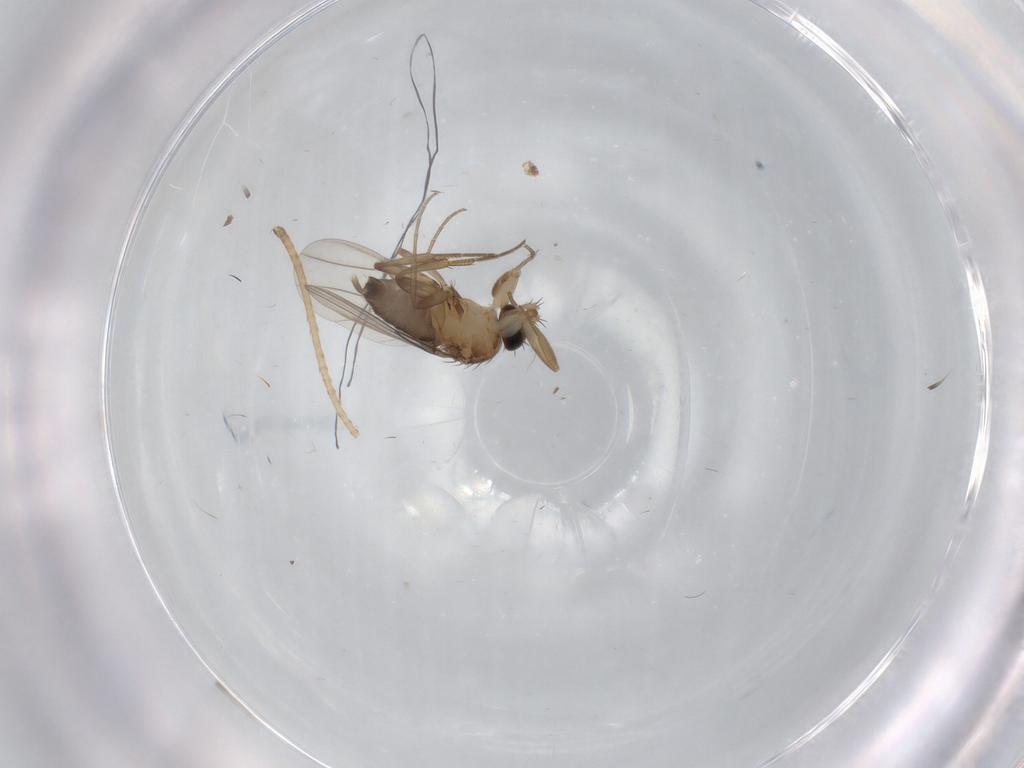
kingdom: Animalia
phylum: Arthropoda
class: Insecta
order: Diptera
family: Phoridae
